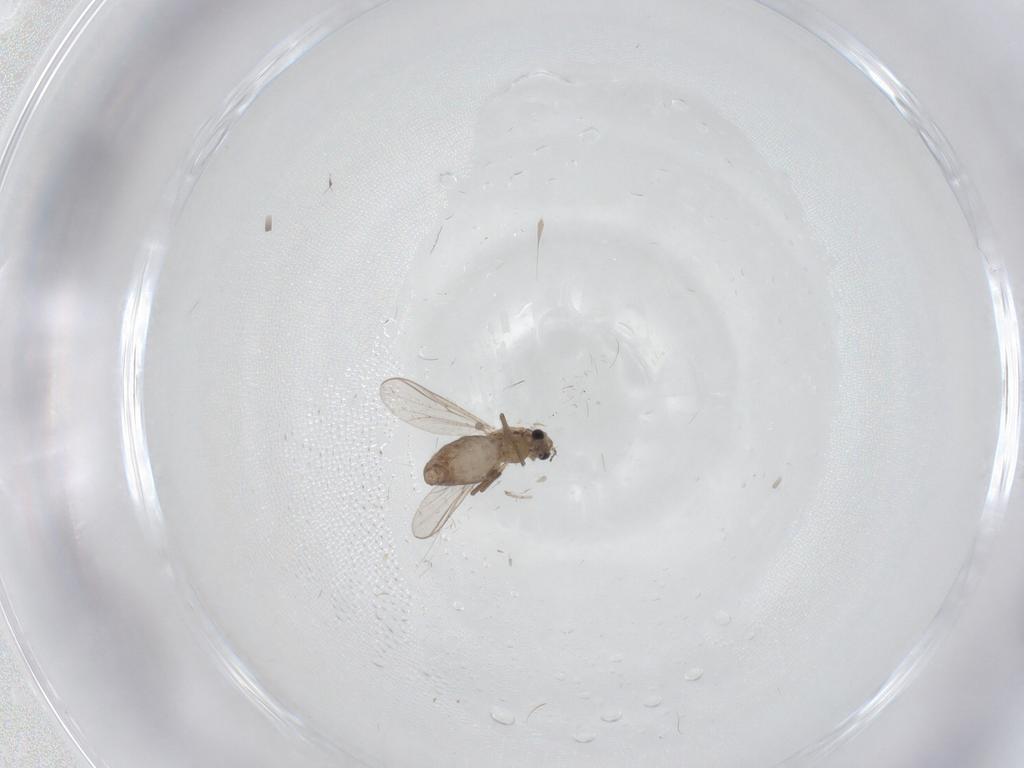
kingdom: Animalia
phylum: Arthropoda
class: Insecta
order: Diptera
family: Chironomidae
